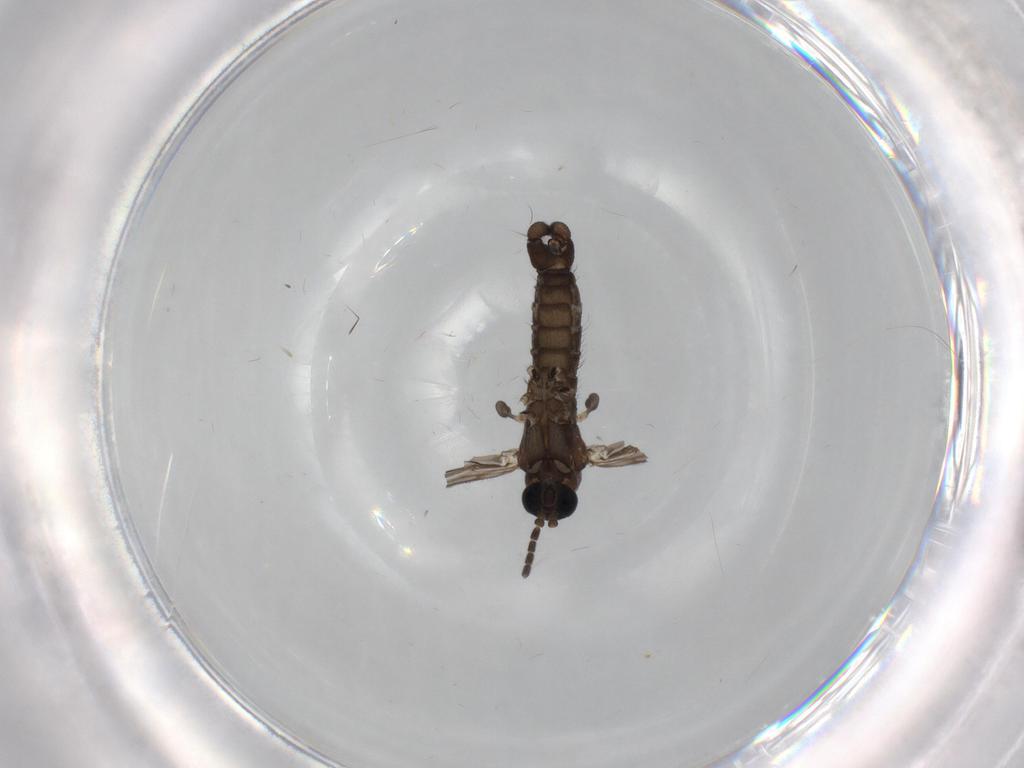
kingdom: Animalia
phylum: Arthropoda
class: Insecta
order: Diptera
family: Sciaridae
